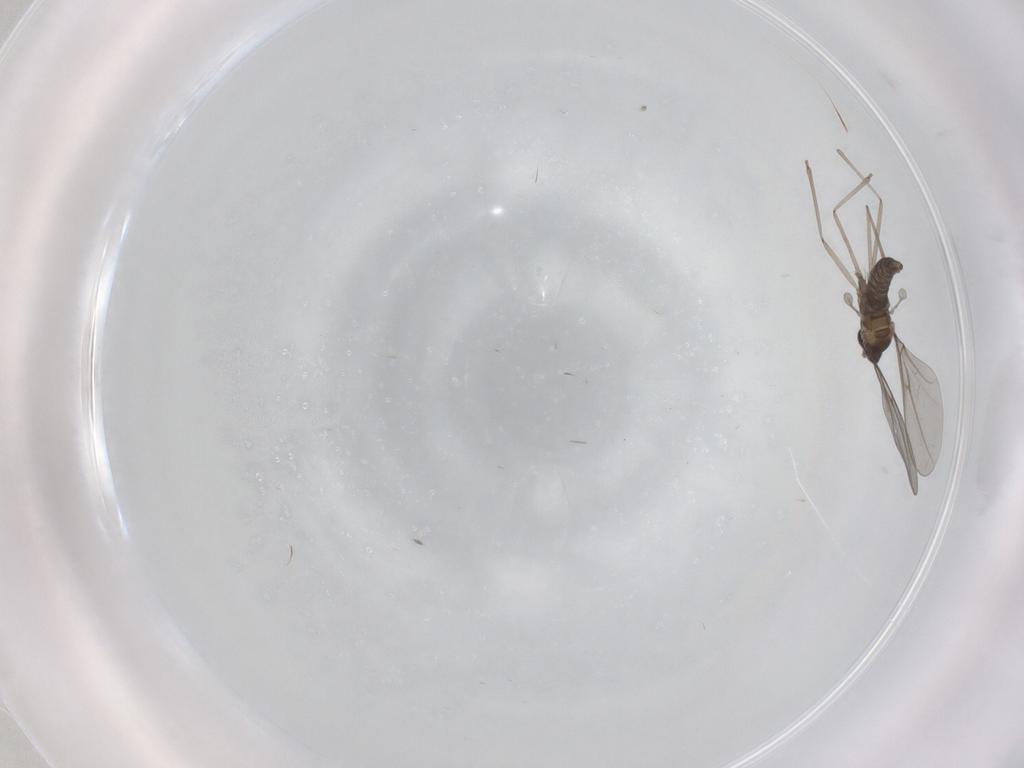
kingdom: Animalia
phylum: Arthropoda
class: Insecta
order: Diptera
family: Cecidomyiidae
